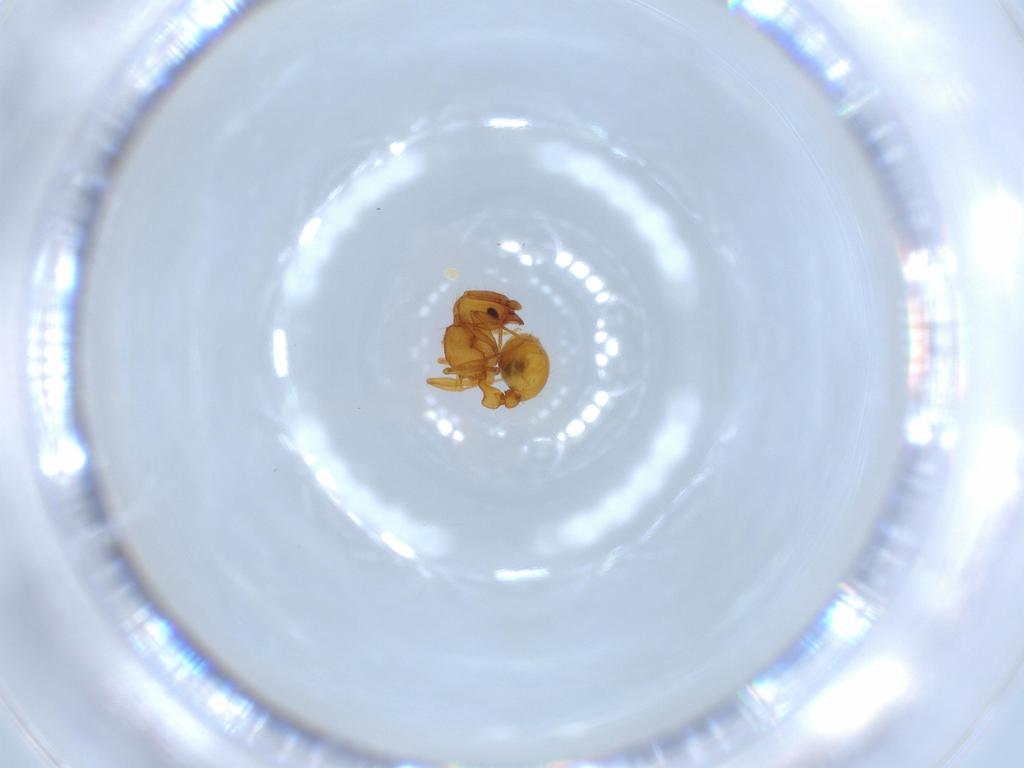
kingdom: Animalia
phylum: Arthropoda
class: Insecta
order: Hymenoptera
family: Formicidae
